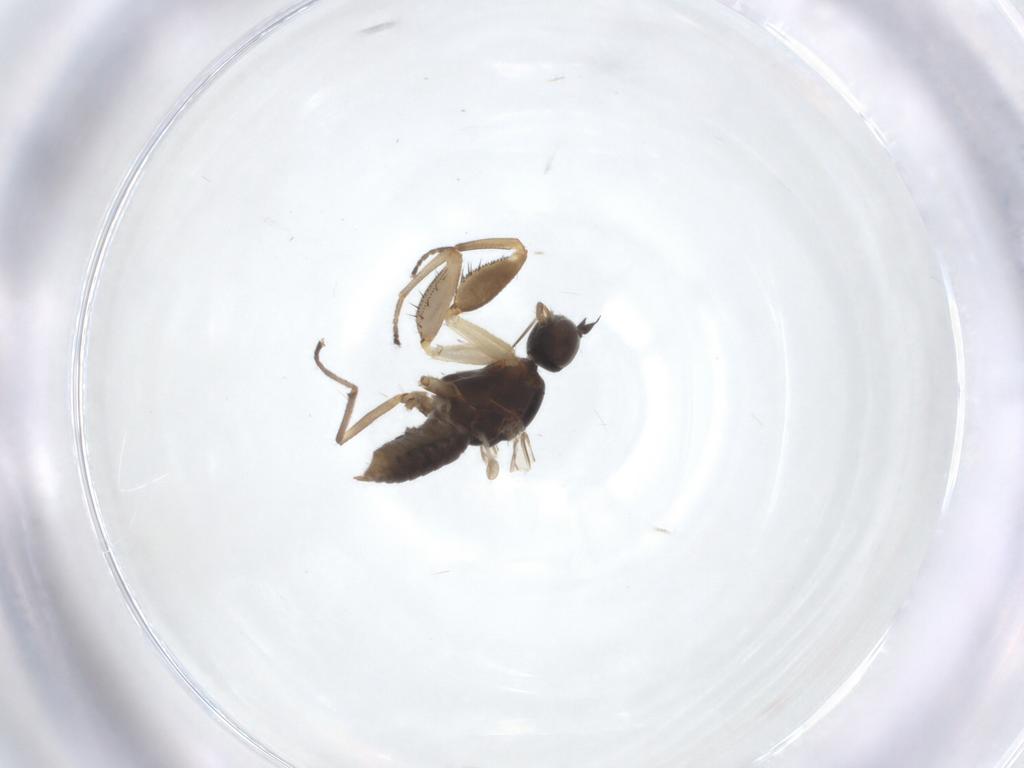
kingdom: Animalia
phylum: Arthropoda
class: Insecta
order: Diptera
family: Empididae
